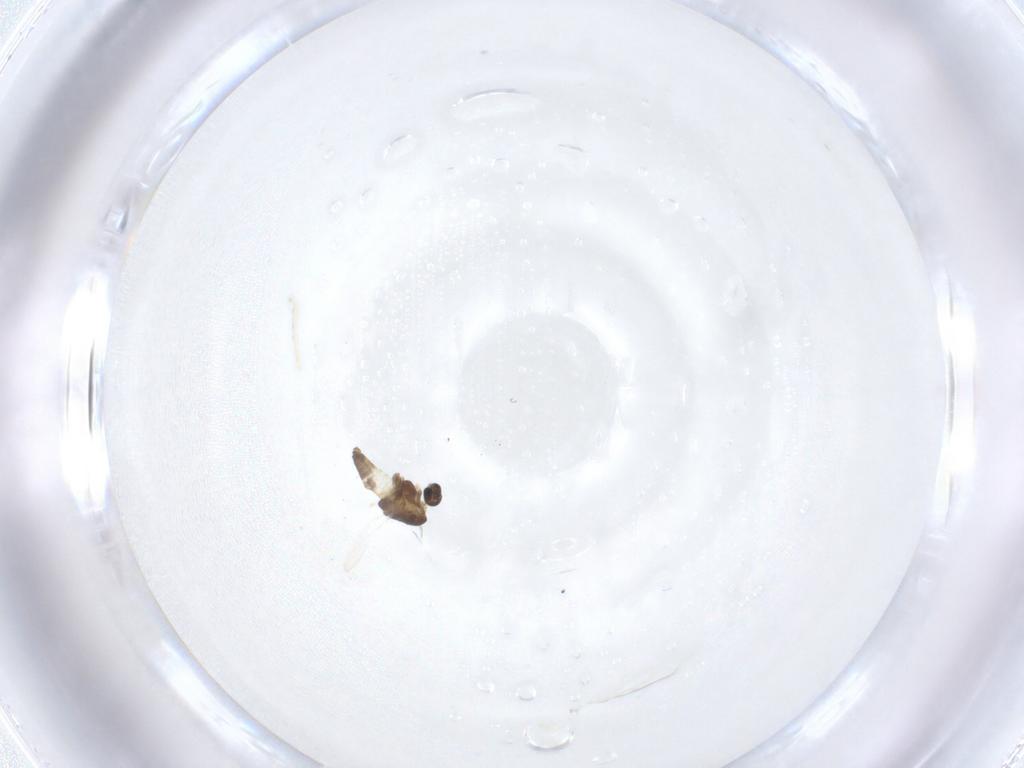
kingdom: Animalia
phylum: Arthropoda
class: Insecta
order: Diptera
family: Chironomidae
